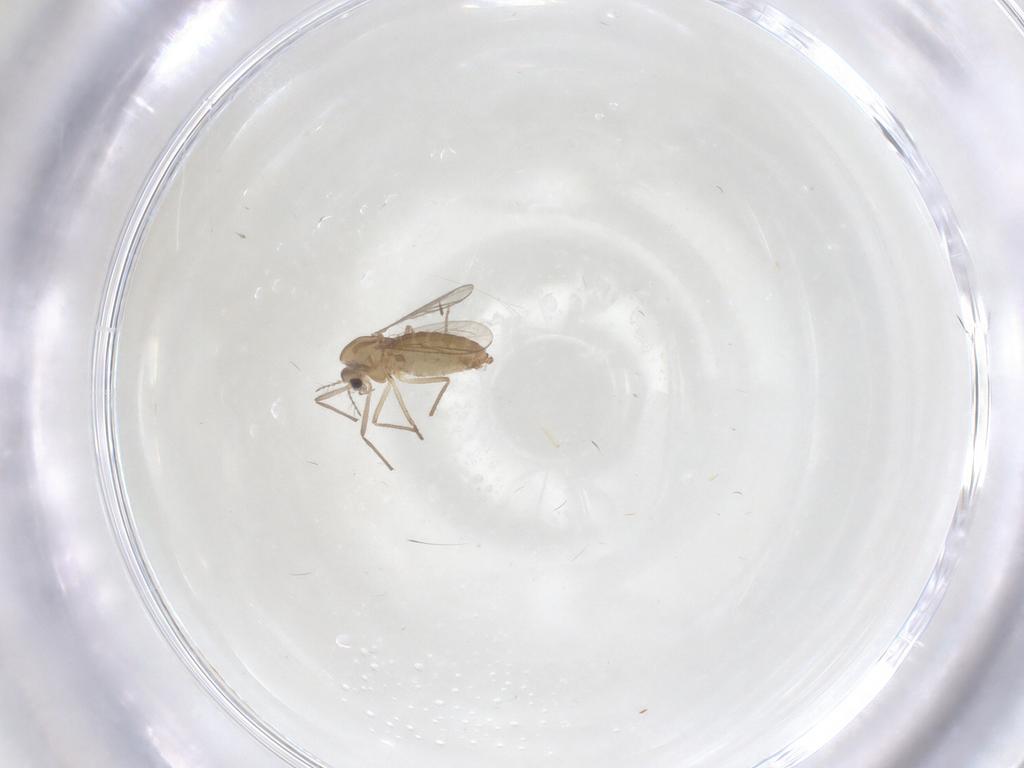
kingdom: Animalia
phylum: Arthropoda
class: Insecta
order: Diptera
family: Chironomidae
